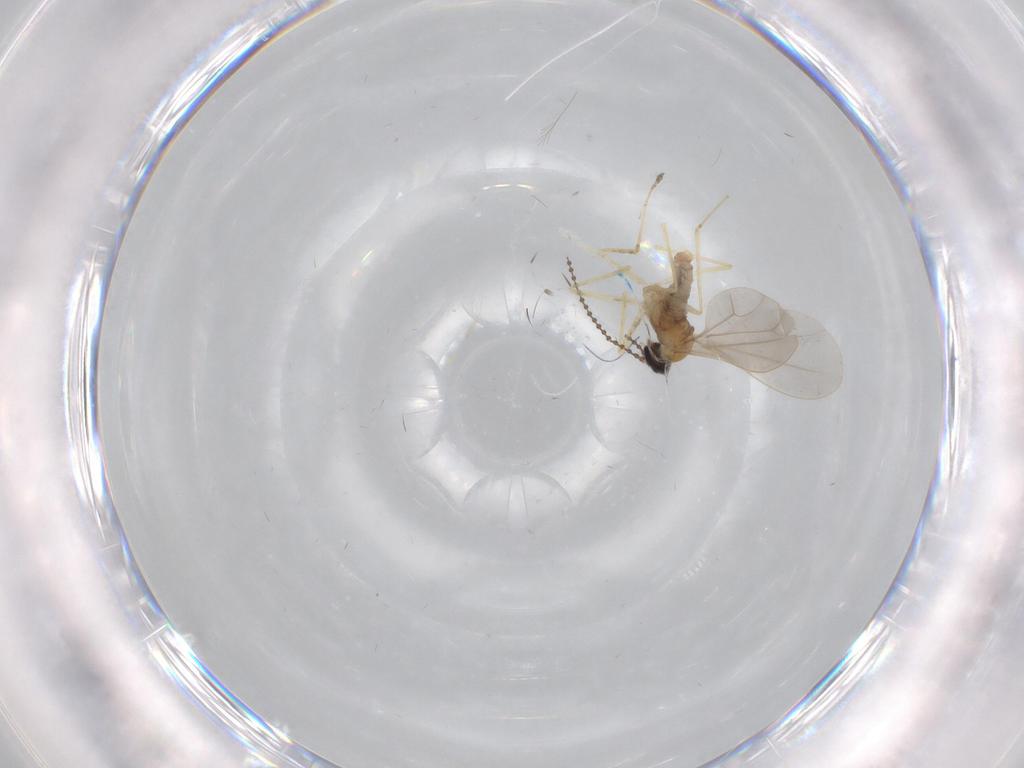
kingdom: Animalia
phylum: Arthropoda
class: Insecta
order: Diptera
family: Cecidomyiidae
